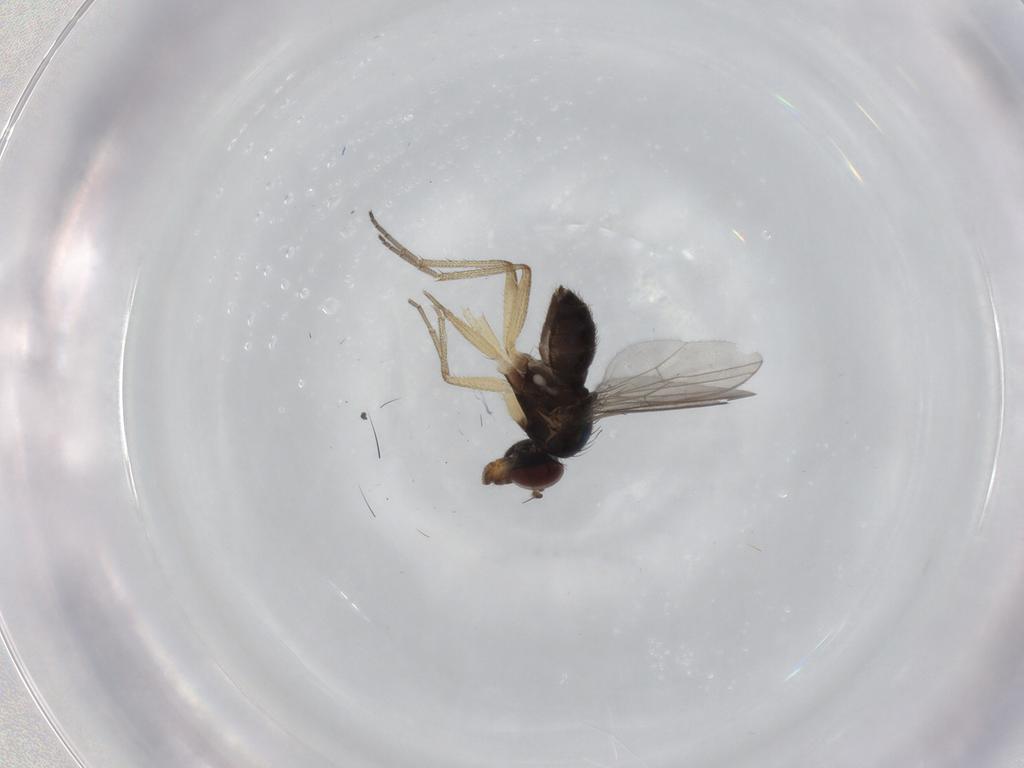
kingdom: Animalia
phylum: Arthropoda
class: Insecta
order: Diptera
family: Dolichopodidae
